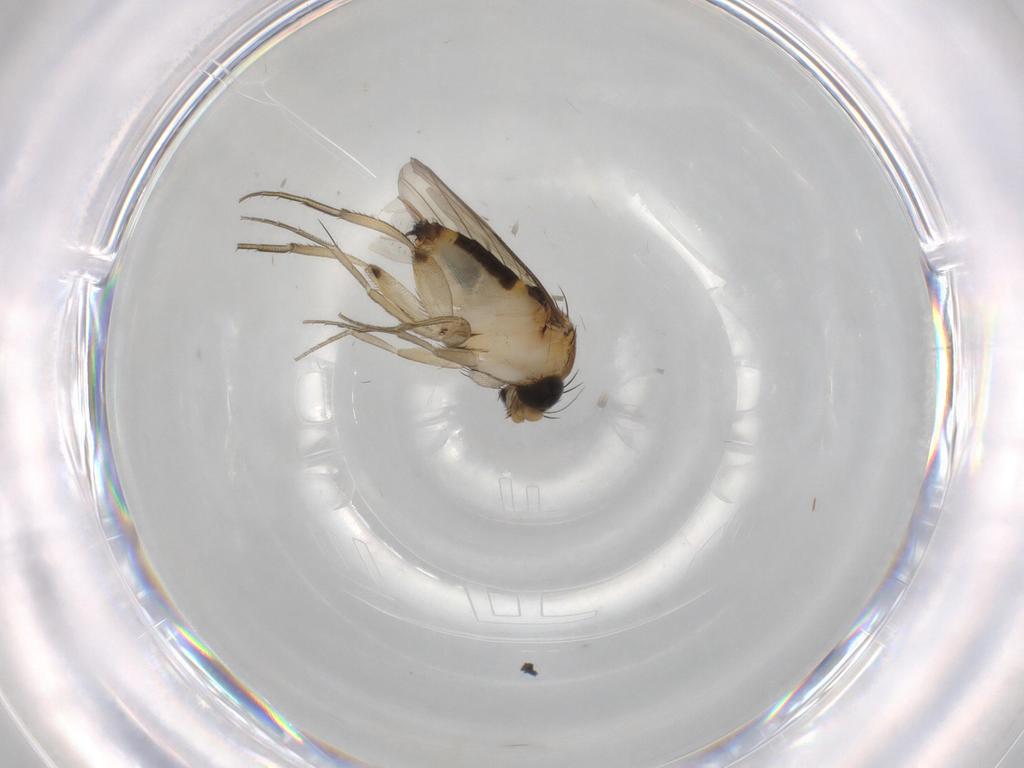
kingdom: Animalia
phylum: Arthropoda
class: Insecta
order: Diptera
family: Phoridae
